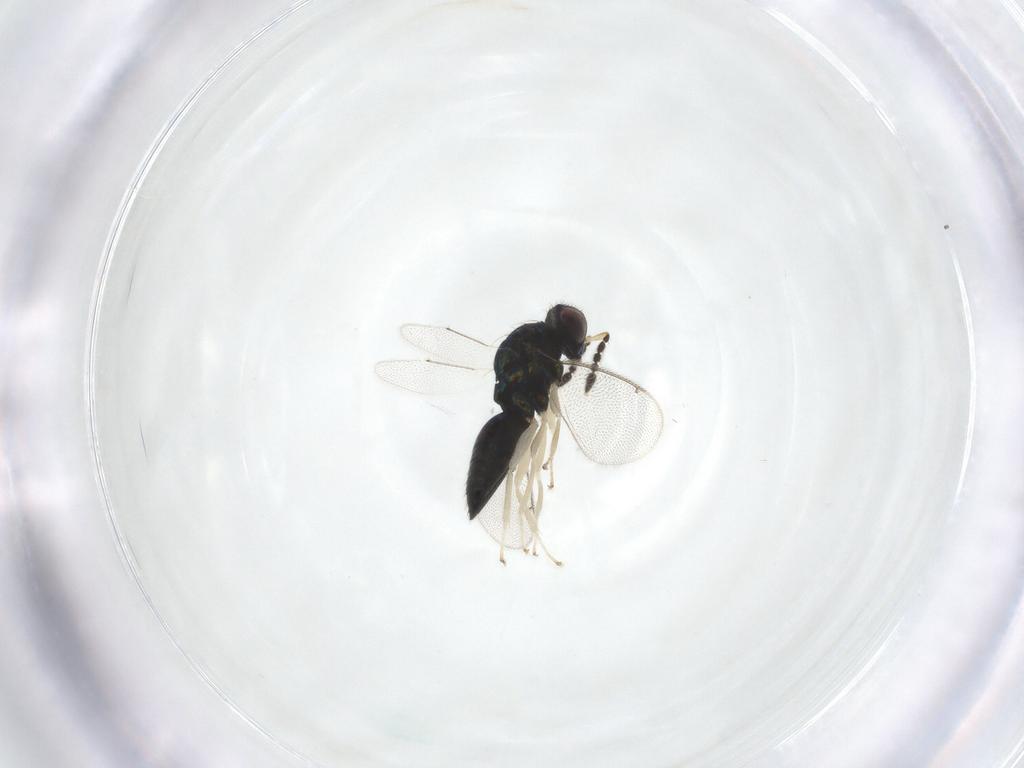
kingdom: Animalia
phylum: Arthropoda
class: Insecta
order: Hymenoptera
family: Eulophidae
